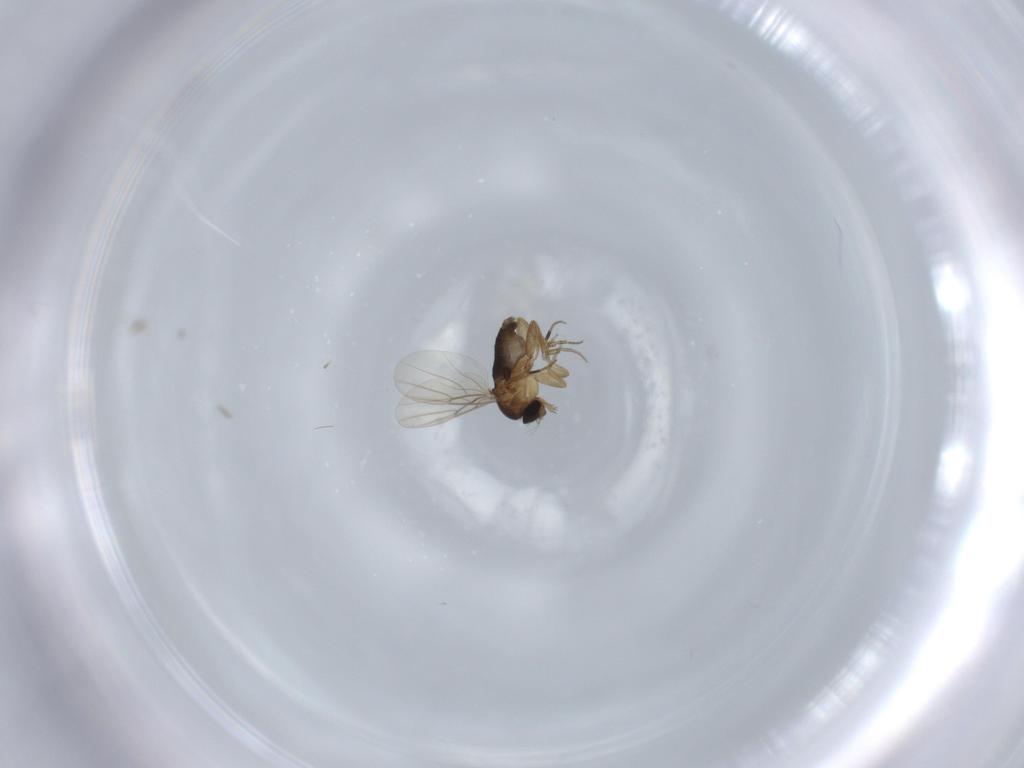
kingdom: Animalia
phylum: Arthropoda
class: Insecta
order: Diptera
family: Phoridae
